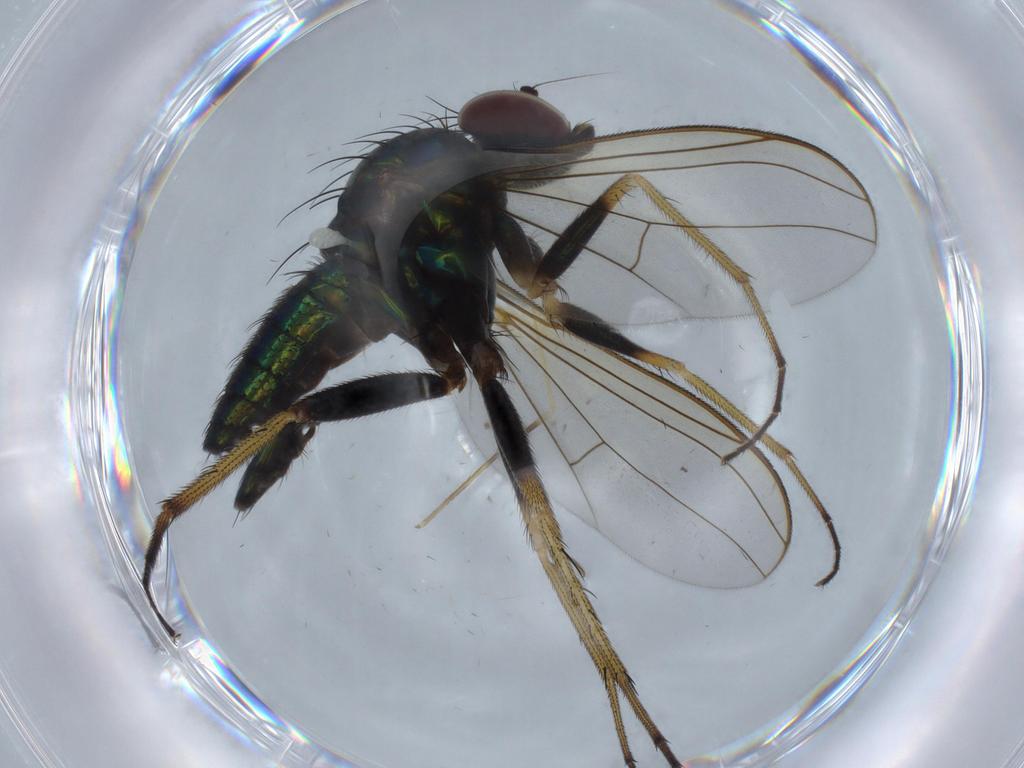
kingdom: Animalia
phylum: Arthropoda
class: Insecta
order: Diptera
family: Dolichopodidae
